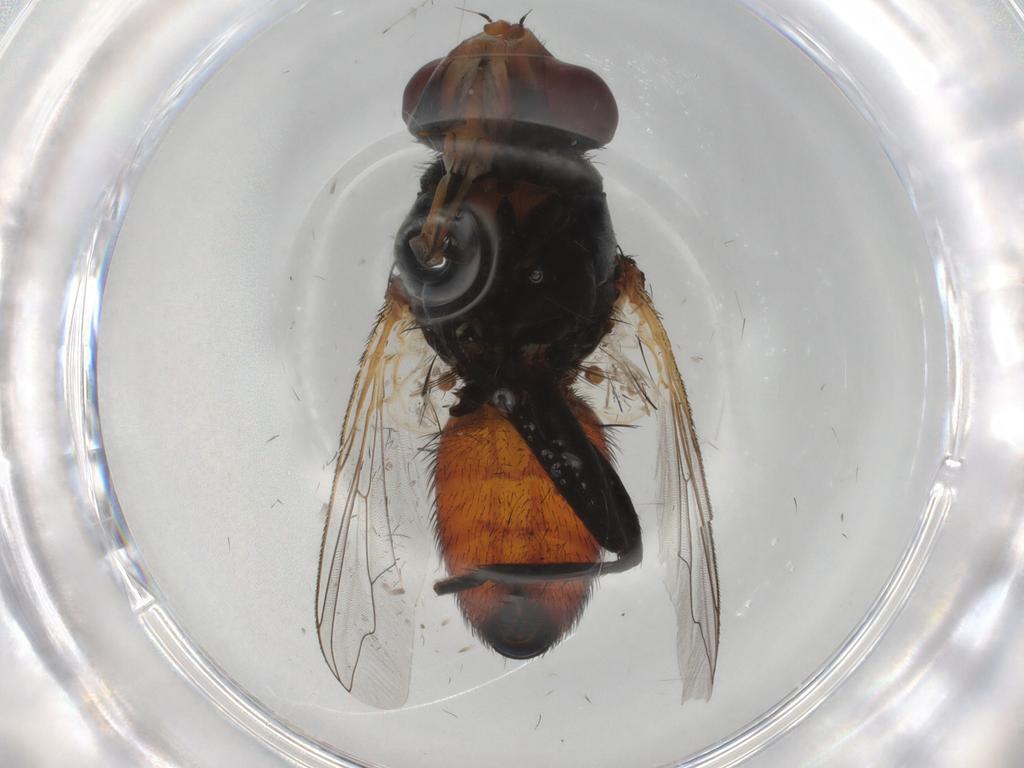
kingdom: Animalia
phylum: Arthropoda
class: Insecta
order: Diptera
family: Sarcophagidae
